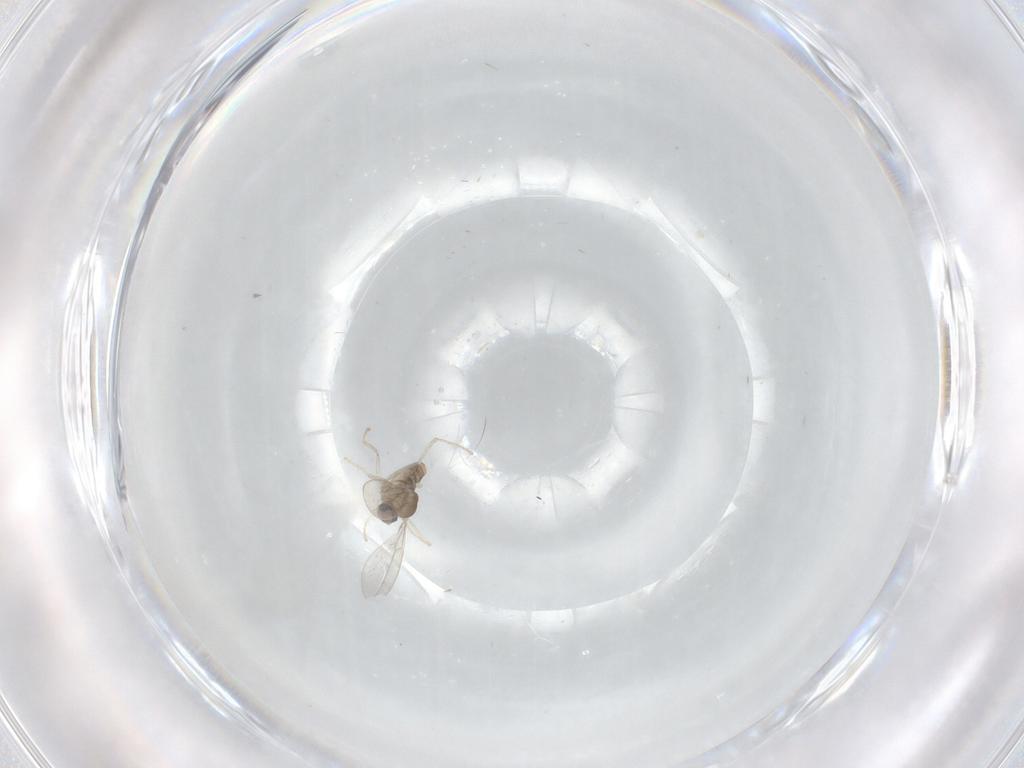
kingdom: Animalia
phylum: Arthropoda
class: Insecta
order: Diptera
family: Cecidomyiidae
